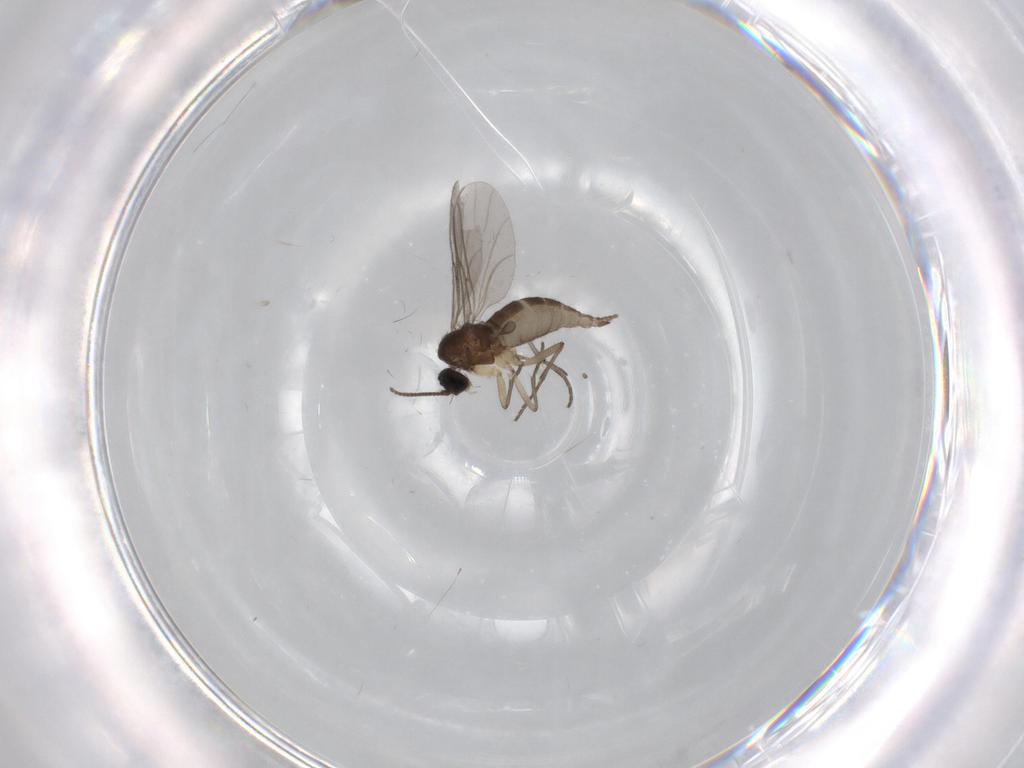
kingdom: Animalia
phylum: Arthropoda
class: Insecta
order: Diptera
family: Sciaridae
